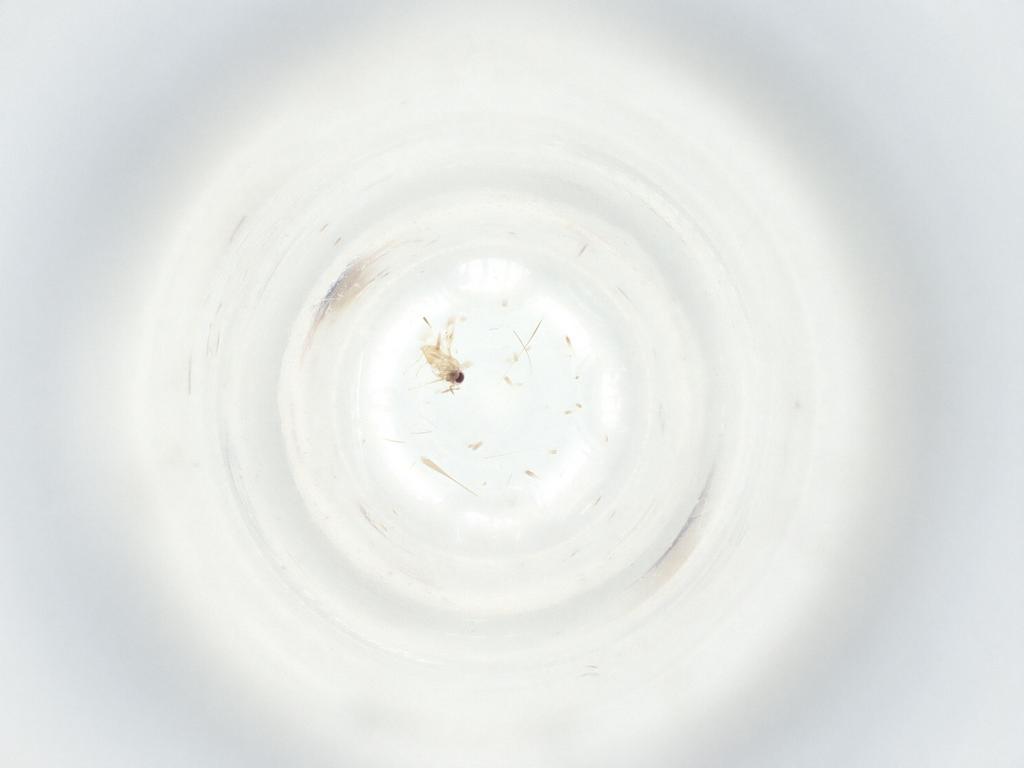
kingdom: Animalia
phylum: Arthropoda
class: Insecta
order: Hymenoptera
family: Trichogrammatidae
